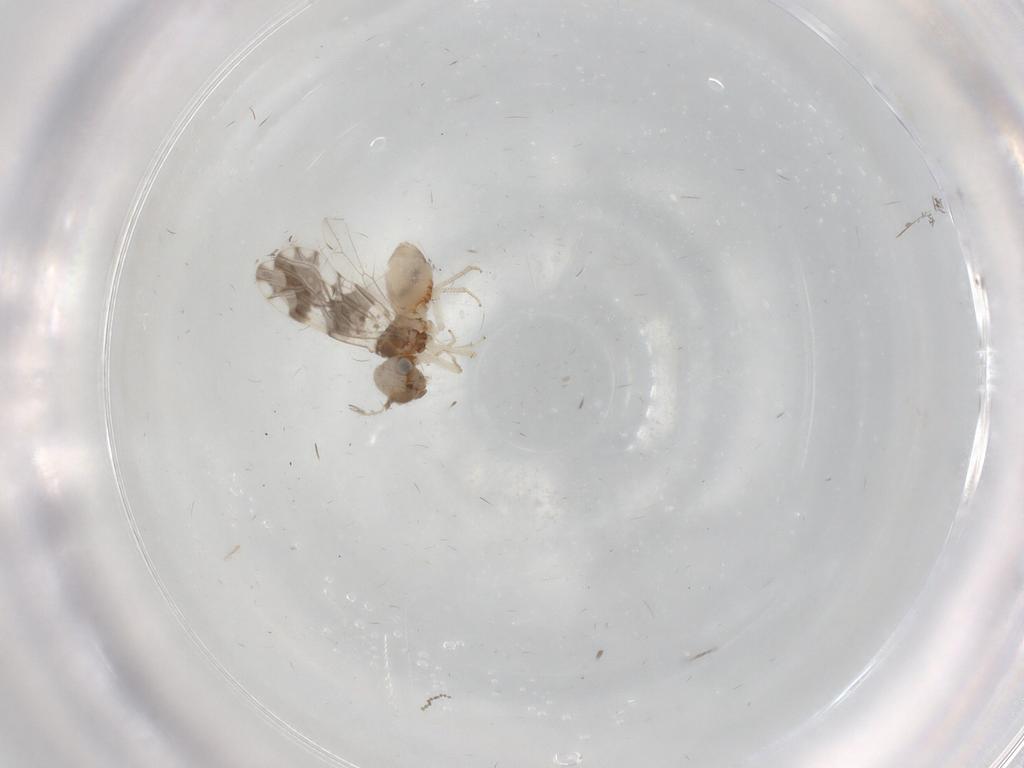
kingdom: Animalia
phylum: Arthropoda
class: Insecta
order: Psocodea
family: Ectopsocidae
